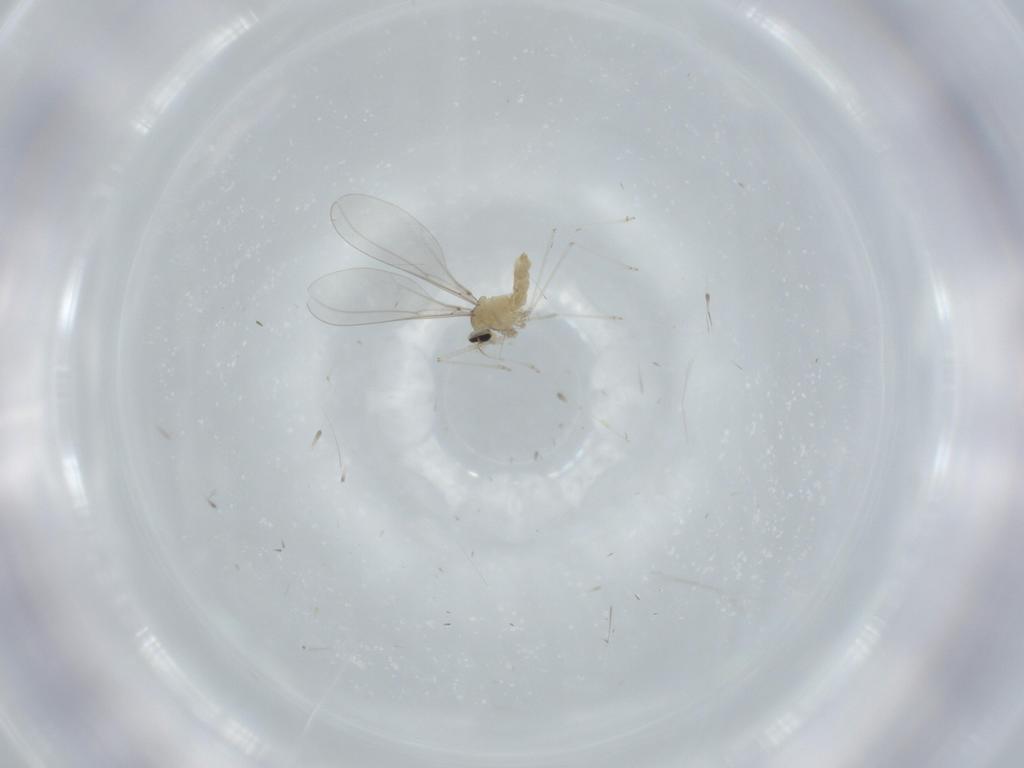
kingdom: Animalia
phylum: Arthropoda
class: Insecta
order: Diptera
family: Cecidomyiidae
